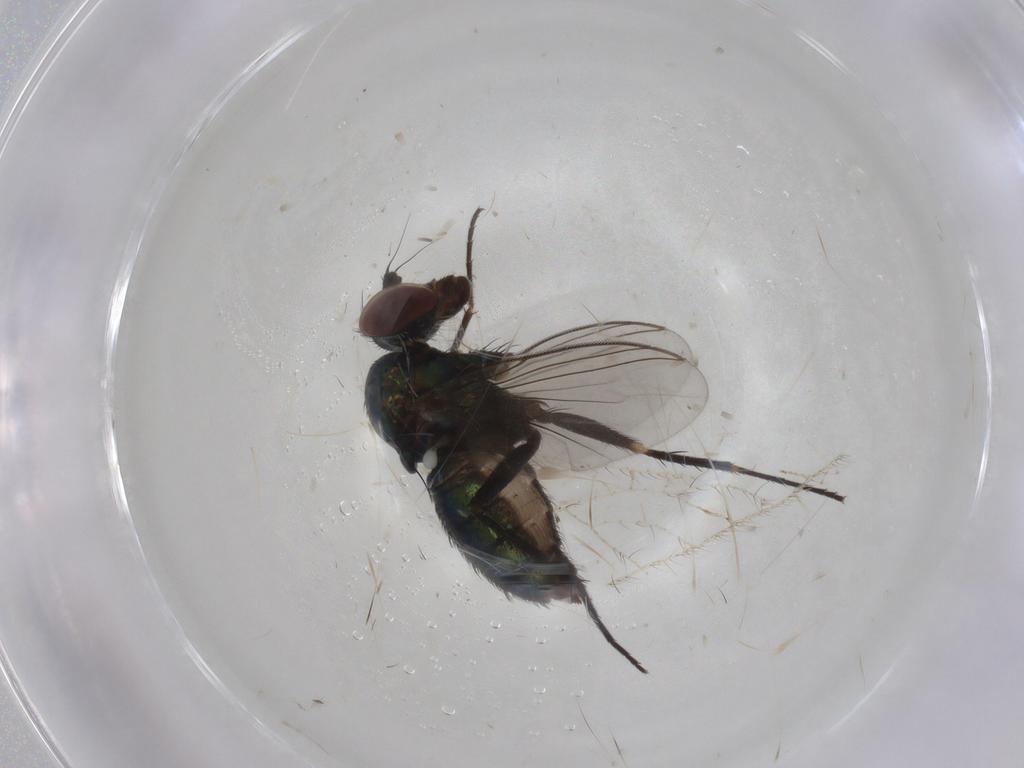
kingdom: Animalia
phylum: Arthropoda
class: Insecta
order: Diptera
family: Dolichopodidae
